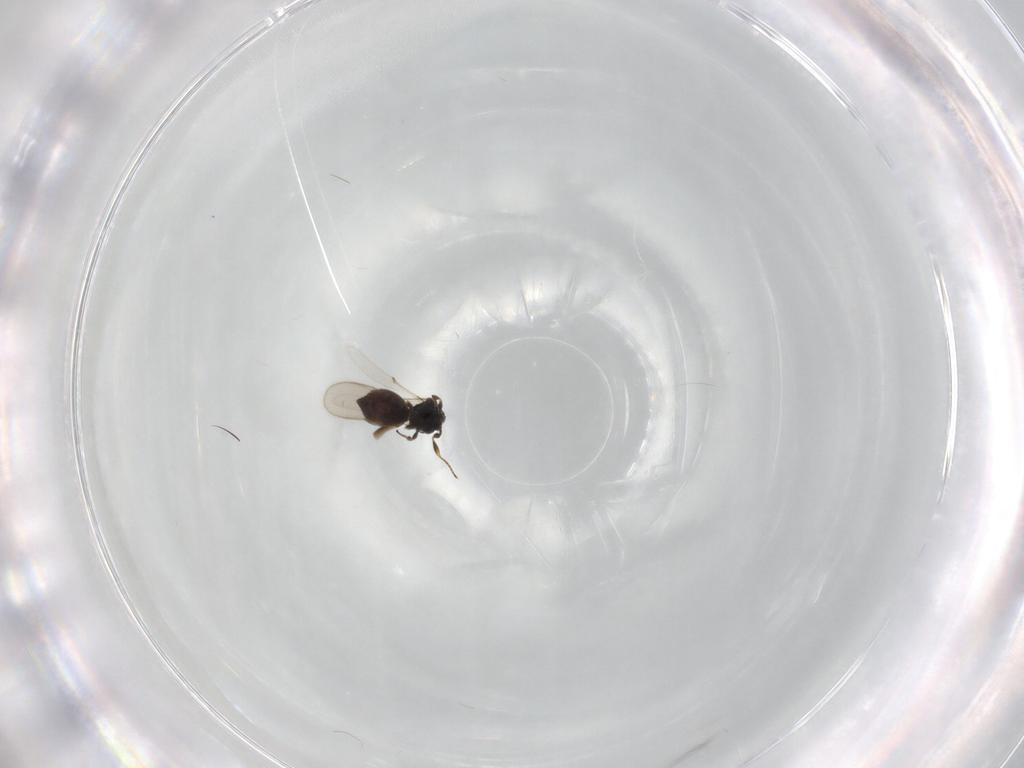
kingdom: Animalia
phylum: Arthropoda
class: Insecta
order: Hymenoptera
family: Scelionidae
